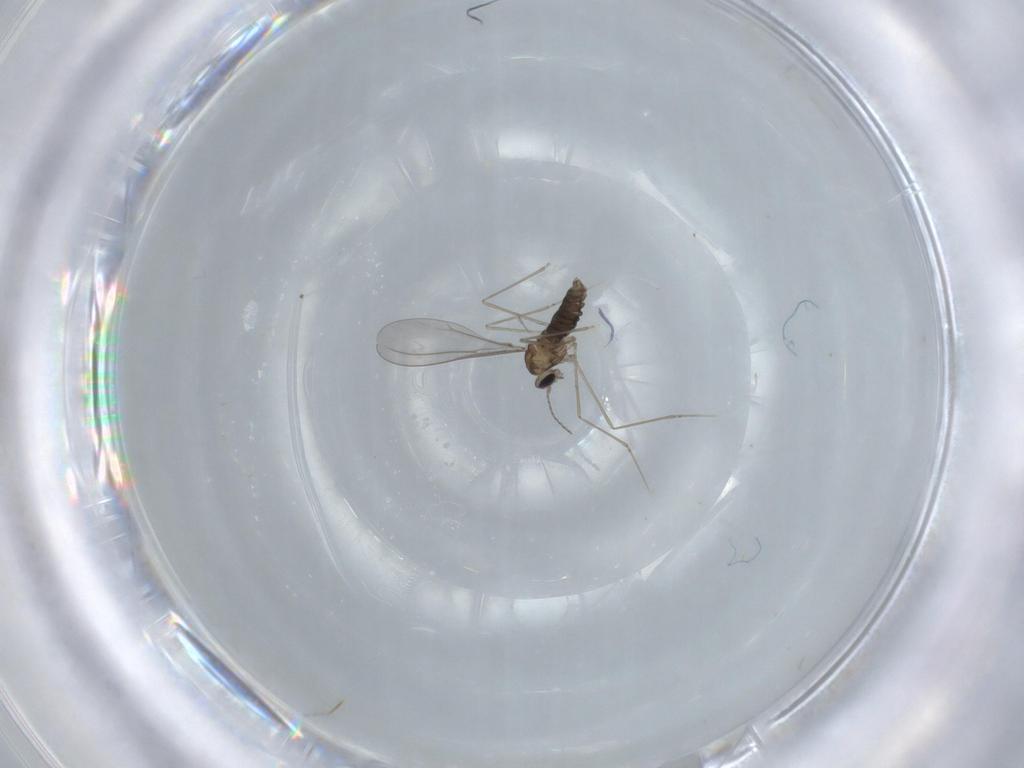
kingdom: Animalia
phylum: Arthropoda
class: Insecta
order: Diptera
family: Cecidomyiidae
